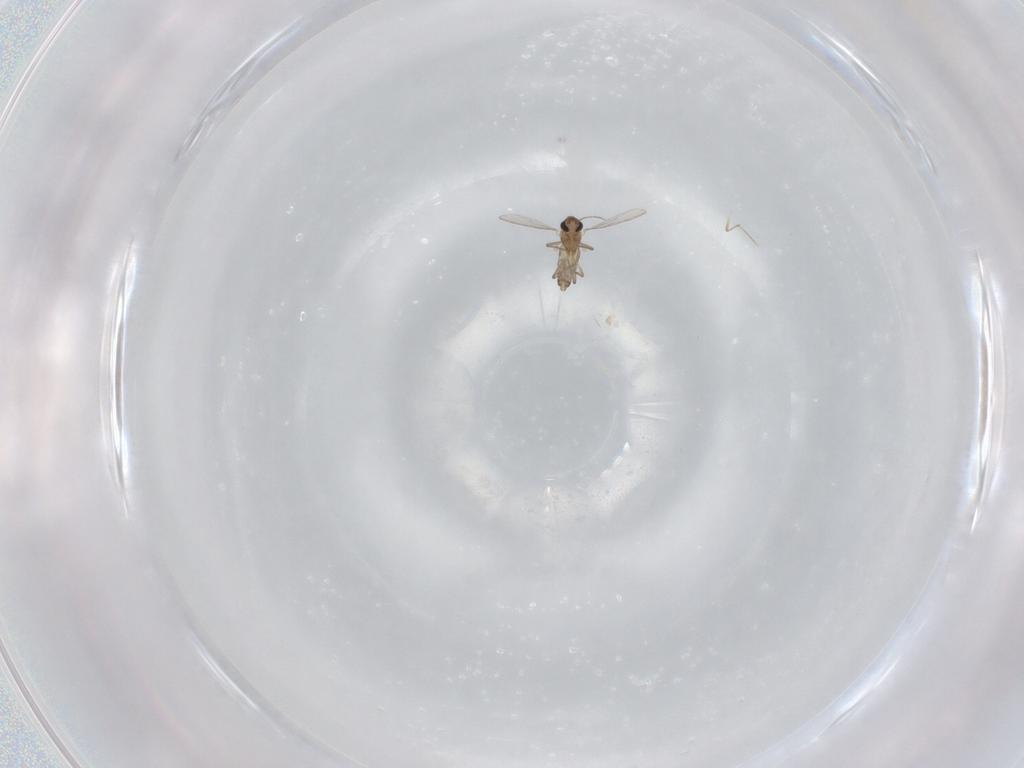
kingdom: Animalia
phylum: Arthropoda
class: Insecta
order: Diptera
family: Chironomidae
